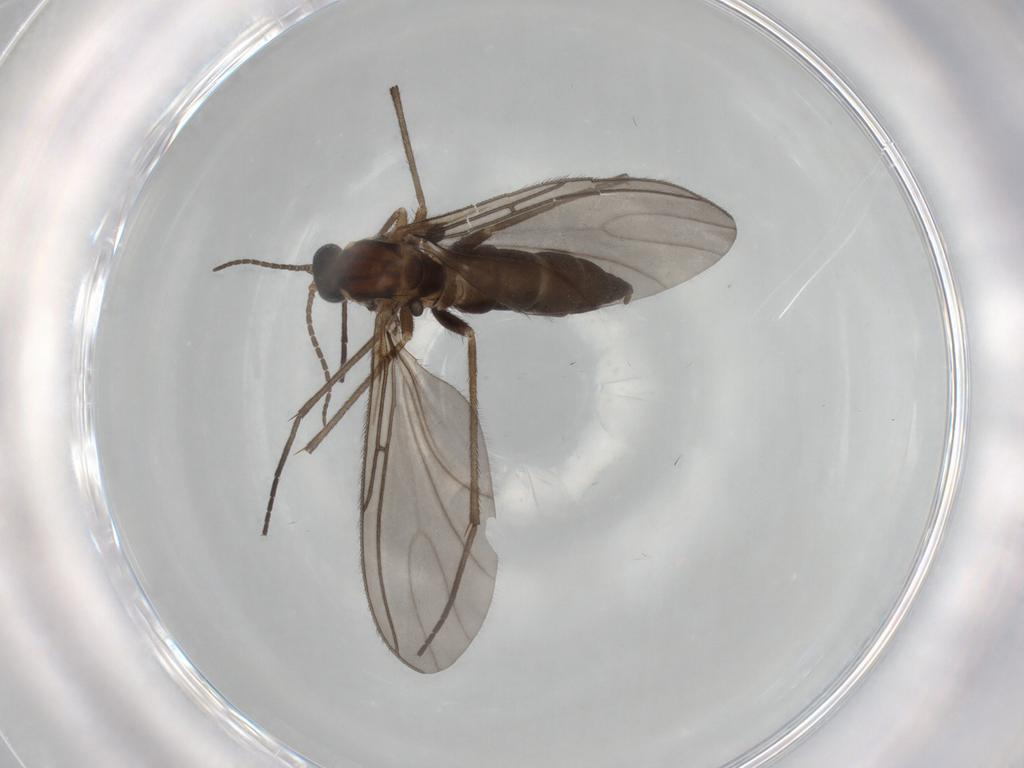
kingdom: Animalia
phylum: Arthropoda
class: Insecta
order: Diptera
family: Sciaridae
